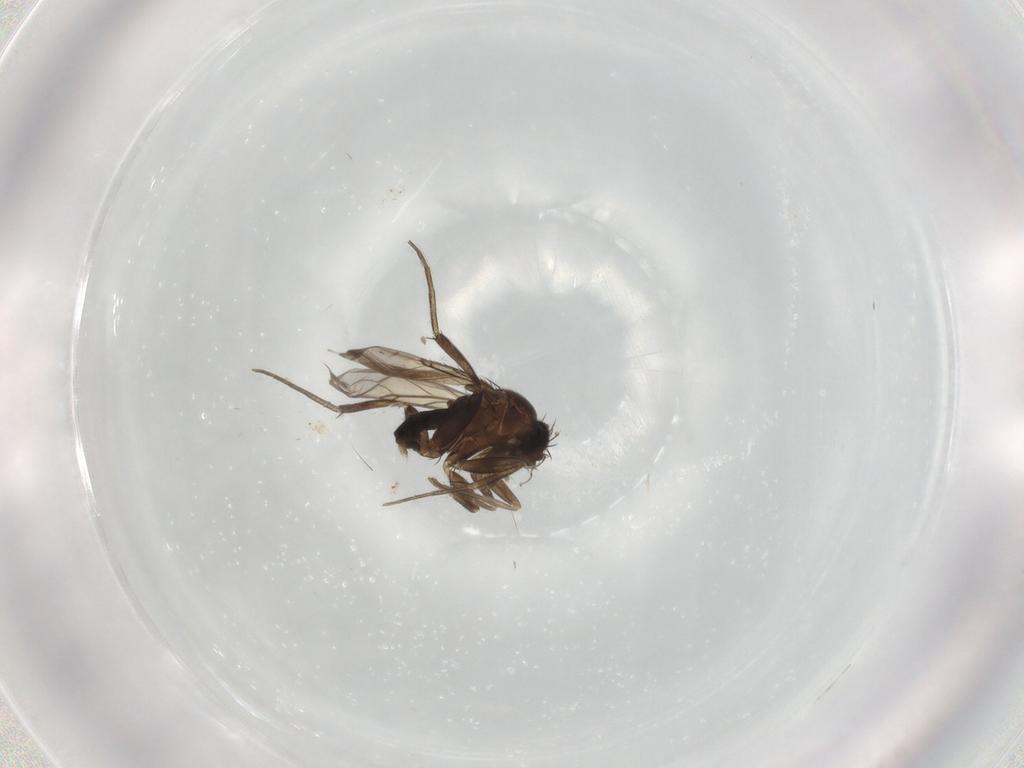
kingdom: Animalia
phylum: Arthropoda
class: Insecta
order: Diptera
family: Phoridae
